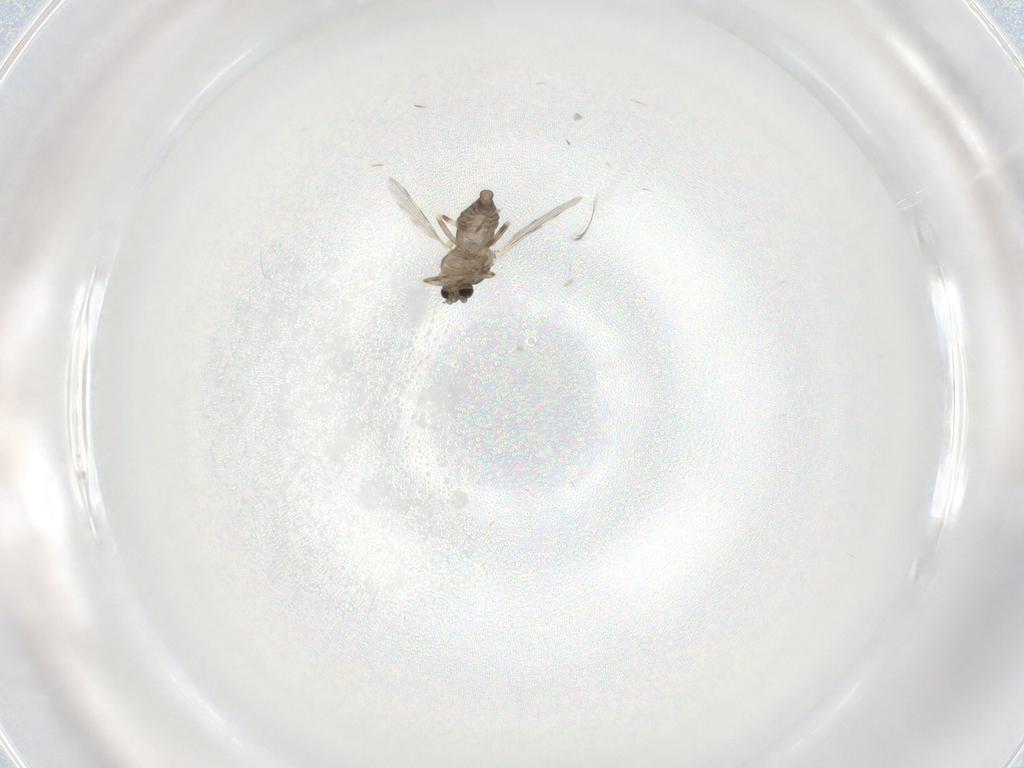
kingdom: Animalia
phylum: Arthropoda
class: Insecta
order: Diptera
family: Ceratopogonidae
